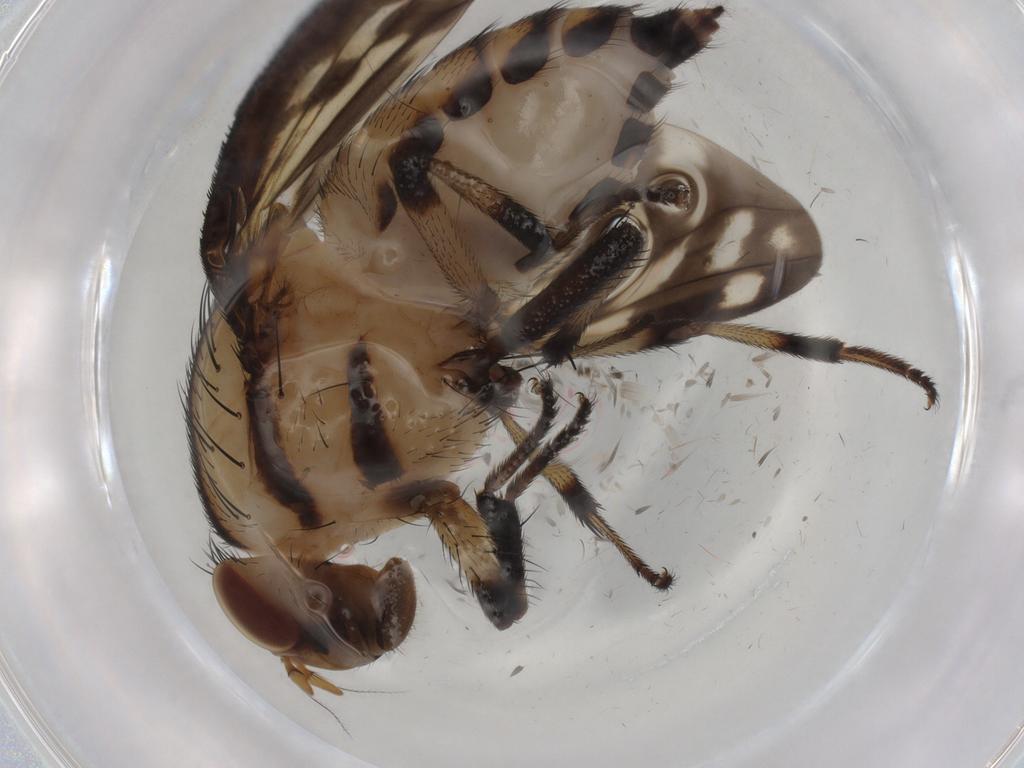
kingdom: Animalia
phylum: Arthropoda
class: Insecta
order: Diptera
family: Cecidomyiidae
